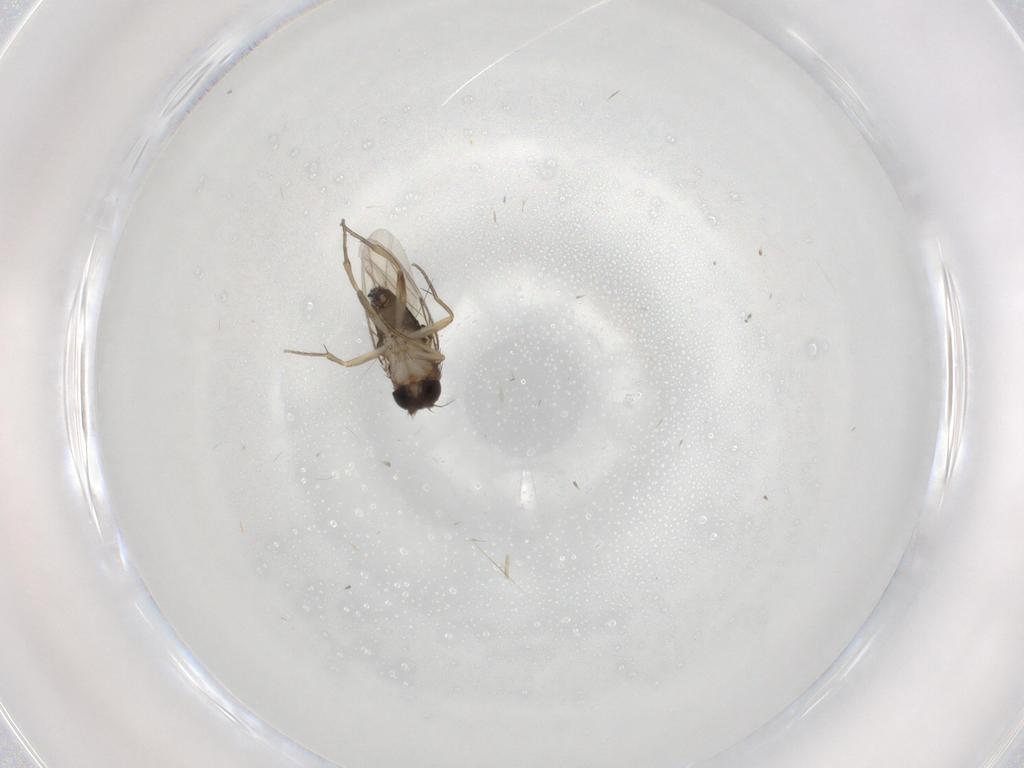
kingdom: Animalia
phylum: Arthropoda
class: Insecta
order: Diptera
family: Phoridae
